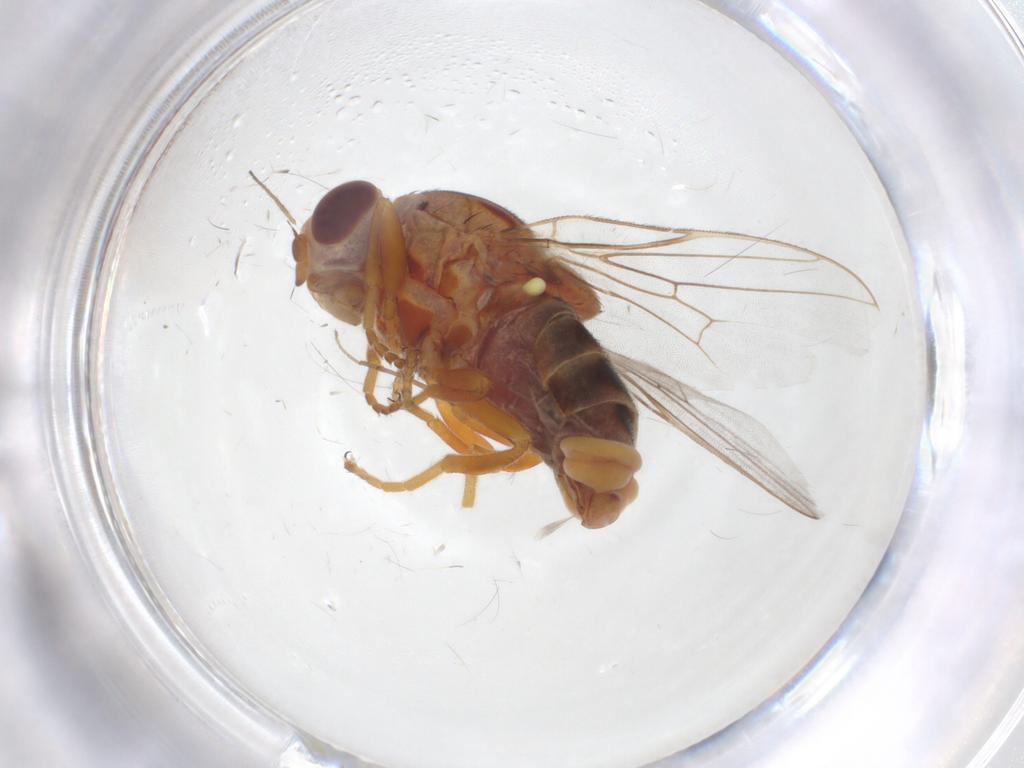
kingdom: Animalia
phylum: Arthropoda
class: Insecta
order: Diptera
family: Chloropidae
